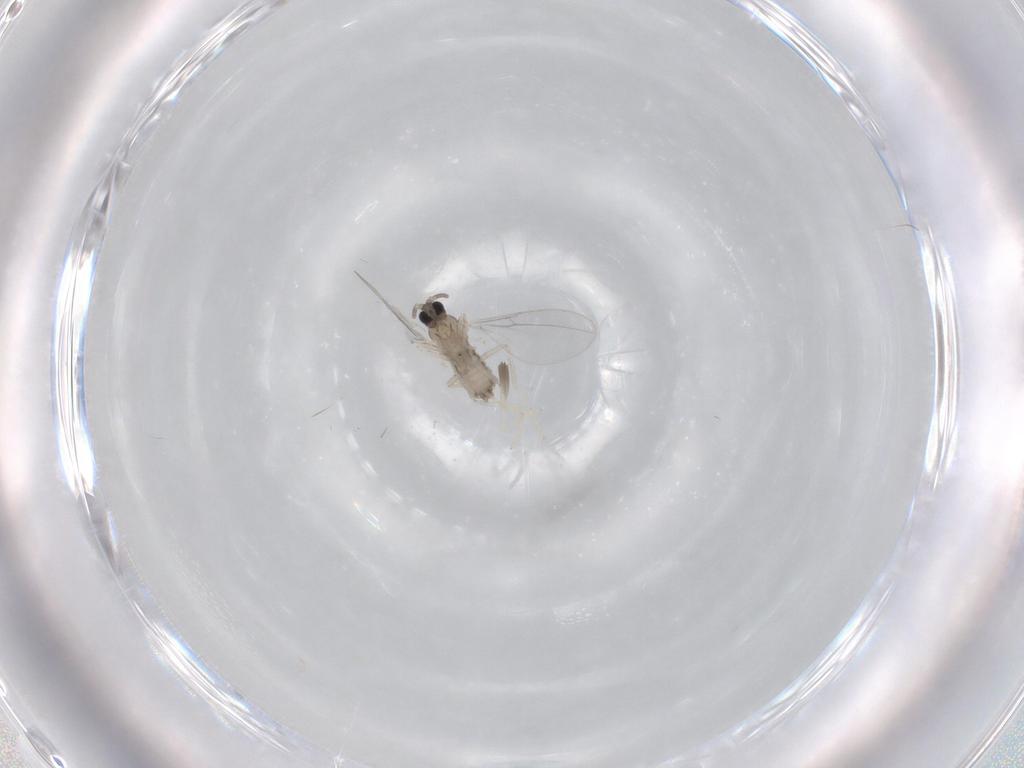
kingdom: Animalia
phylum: Arthropoda
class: Insecta
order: Diptera
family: Cecidomyiidae
